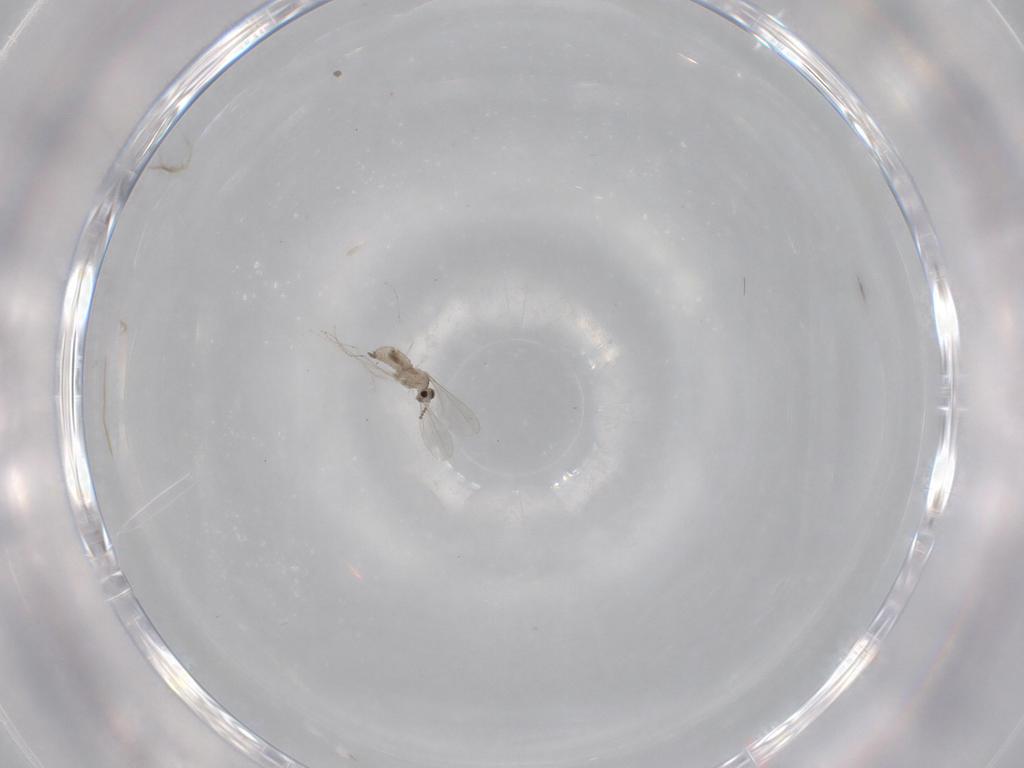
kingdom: Animalia
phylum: Arthropoda
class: Insecta
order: Diptera
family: Cecidomyiidae
